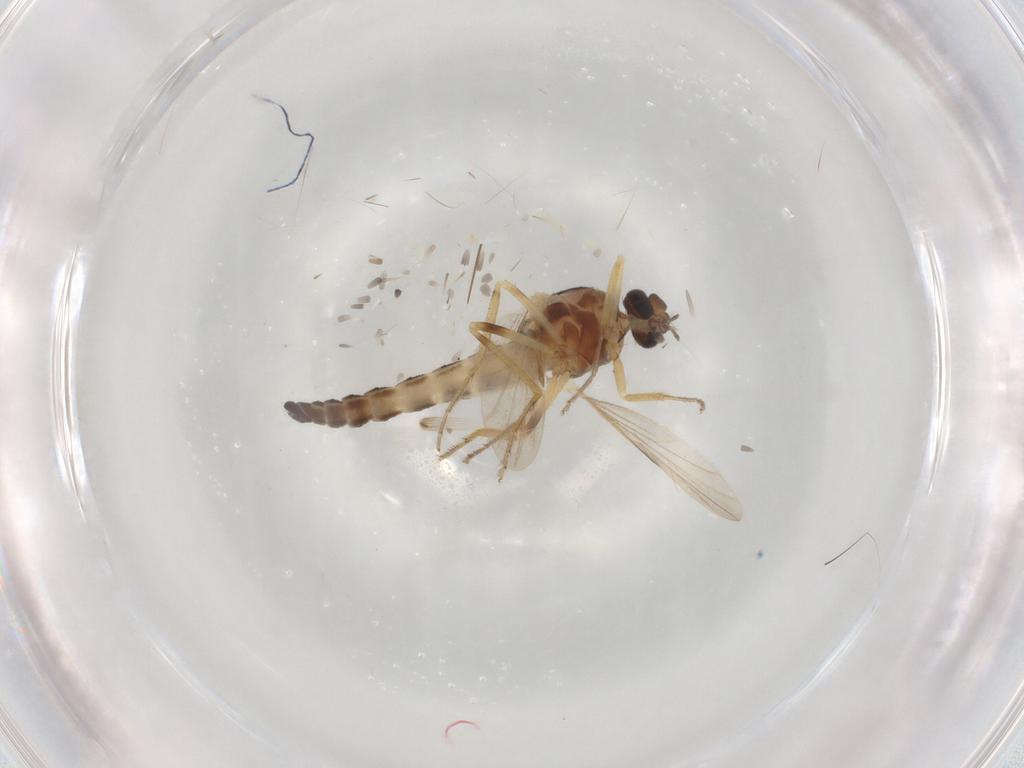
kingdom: Animalia
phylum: Arthropoda
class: Insecta
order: Diptera
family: Ceratopogonidae
